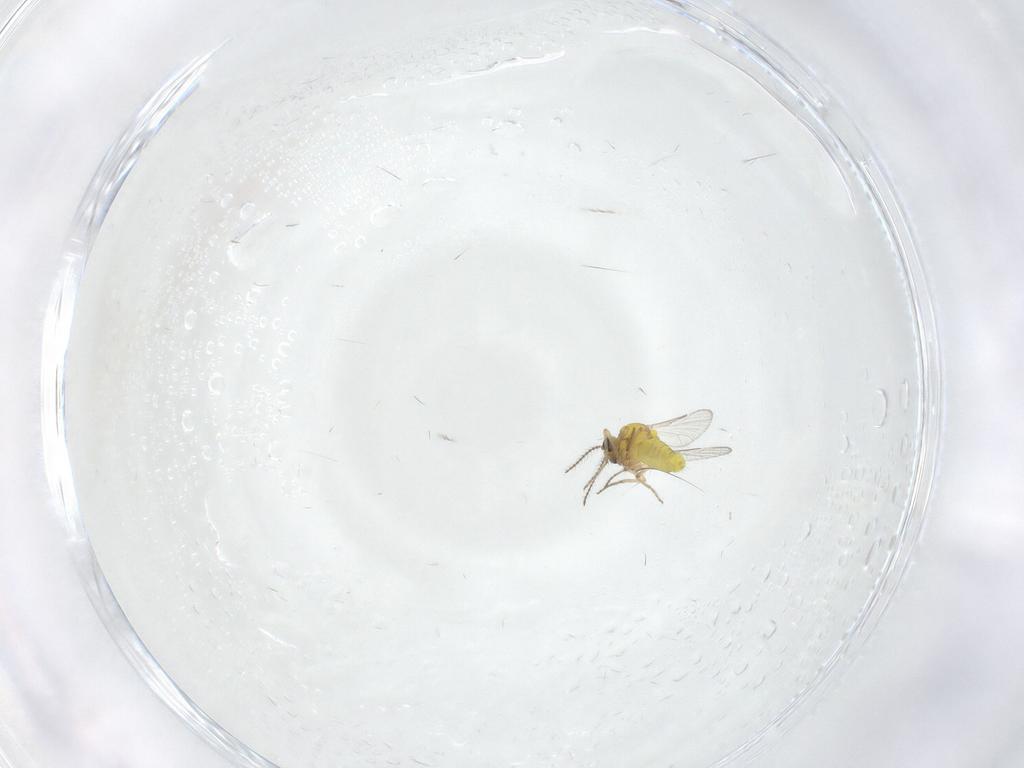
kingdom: Animalia
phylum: Arthropoda
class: Insecta
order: Diptera
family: Ceratopogonidae
